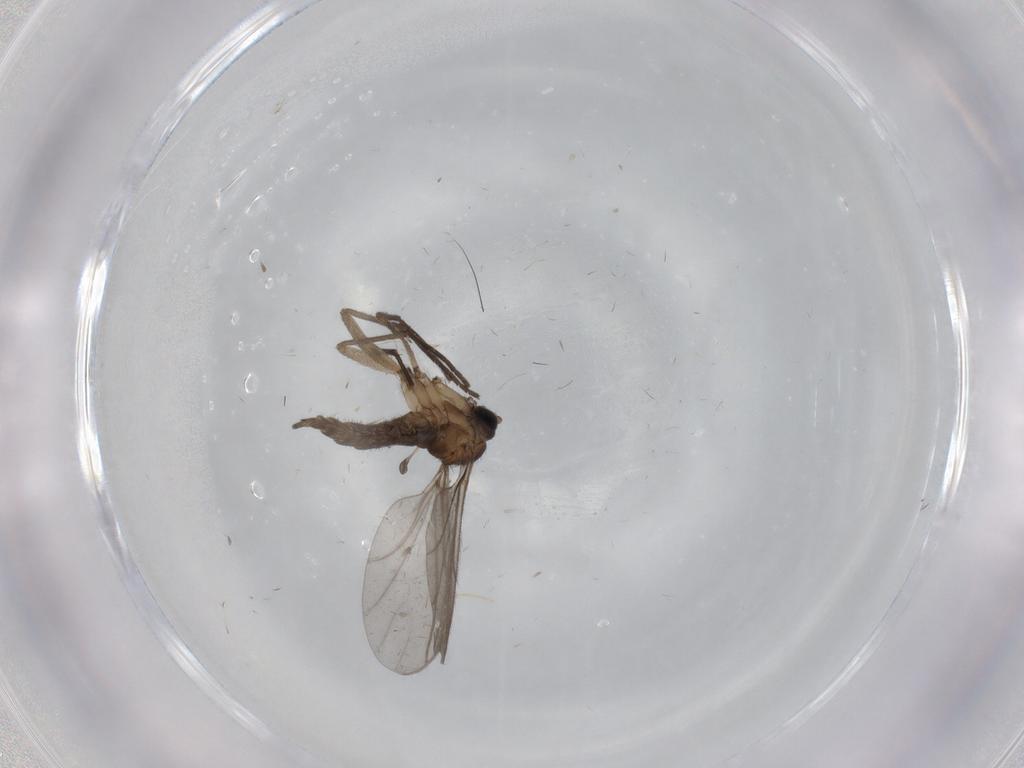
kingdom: Animalia
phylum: Arthropoda
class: Insecta
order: Diptera
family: Sciaridae
